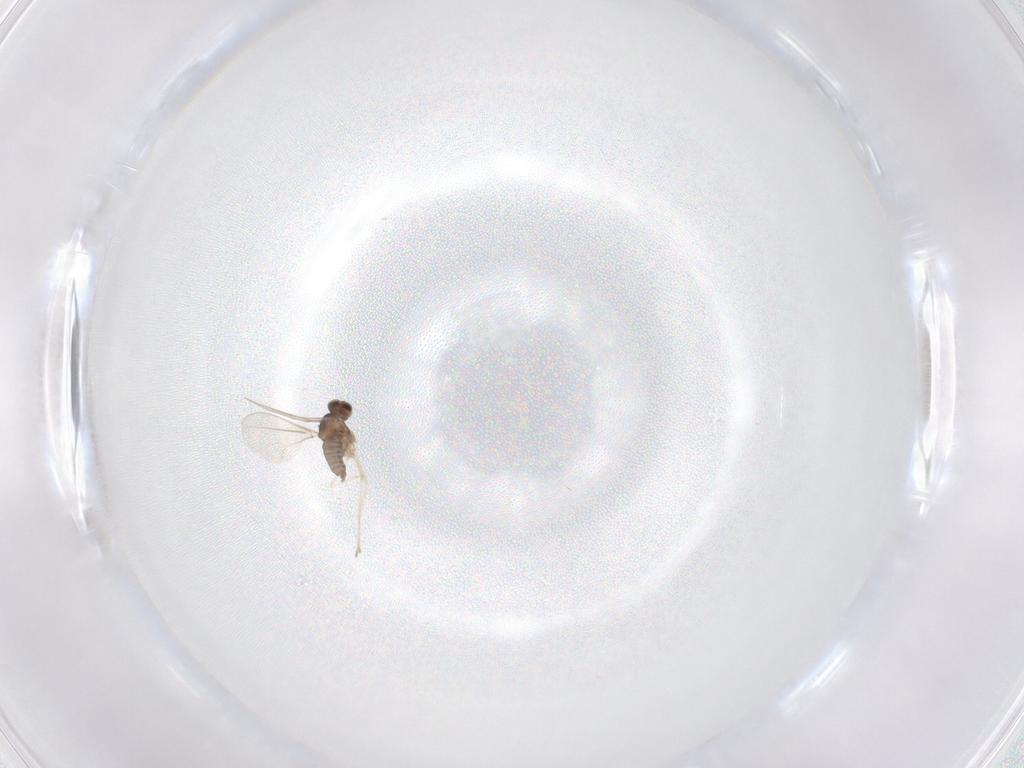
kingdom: Animalia
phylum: Arthropoda
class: Insecta
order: Diptera
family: Cecidomyiidae
